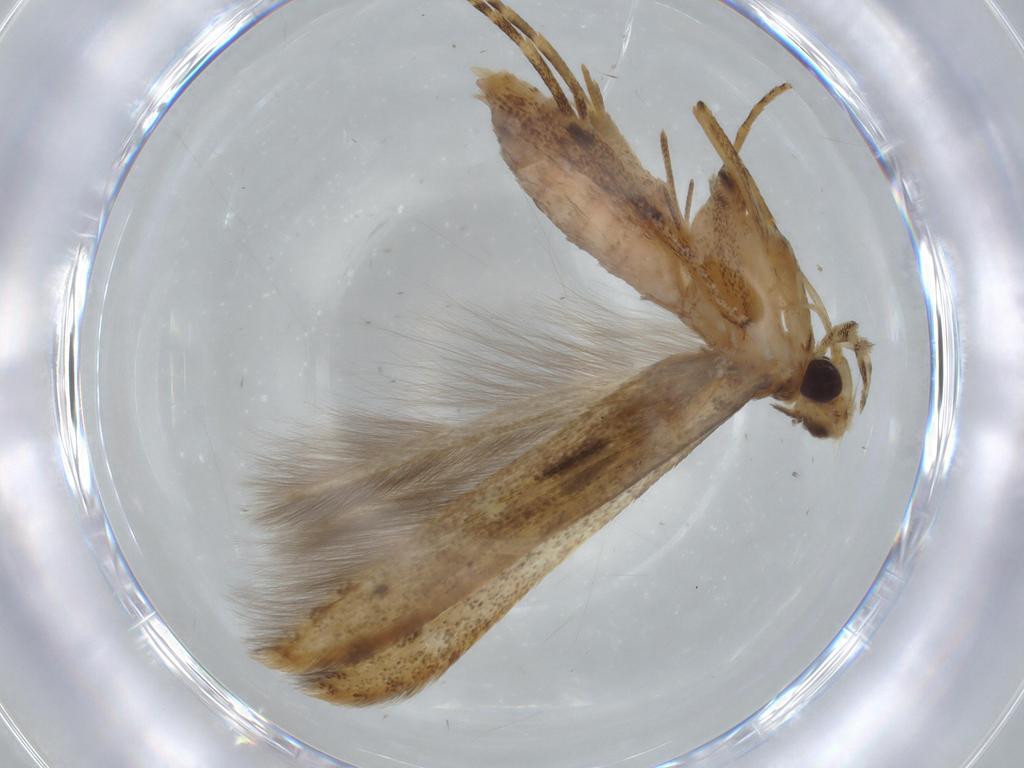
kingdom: Animalia
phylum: Arthropoda
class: Insecta
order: Lepidoptera
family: Batrachedridae
